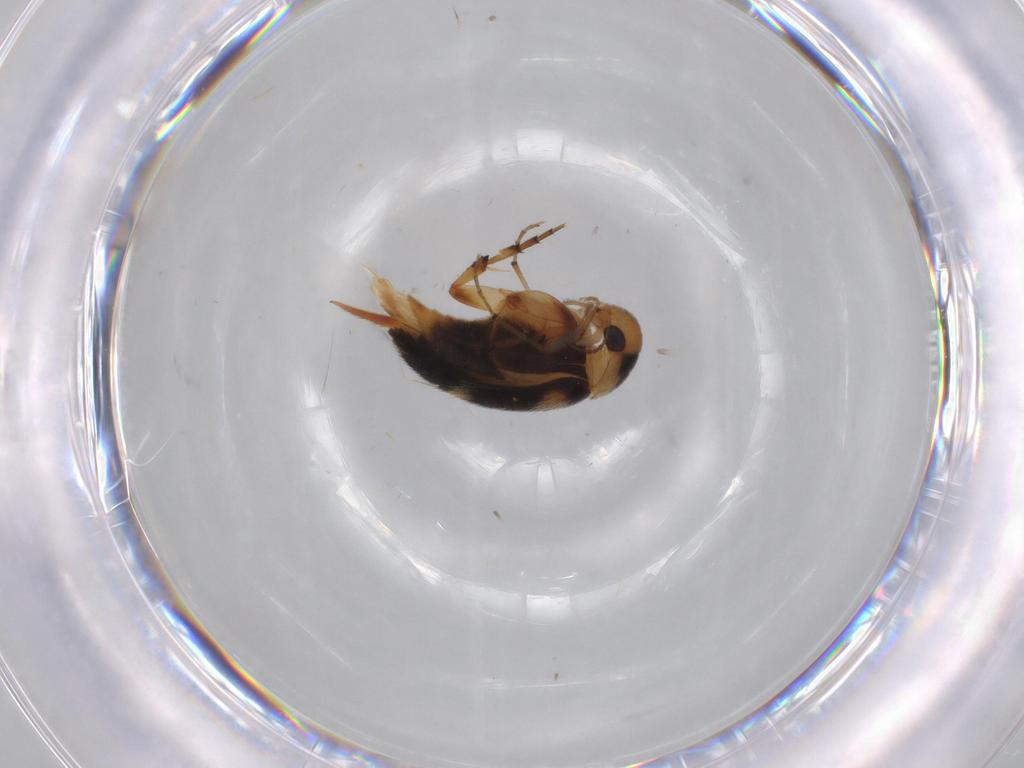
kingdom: Animalia
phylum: Arthropoda
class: Insecta
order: Coleoptera
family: Mordellidae
